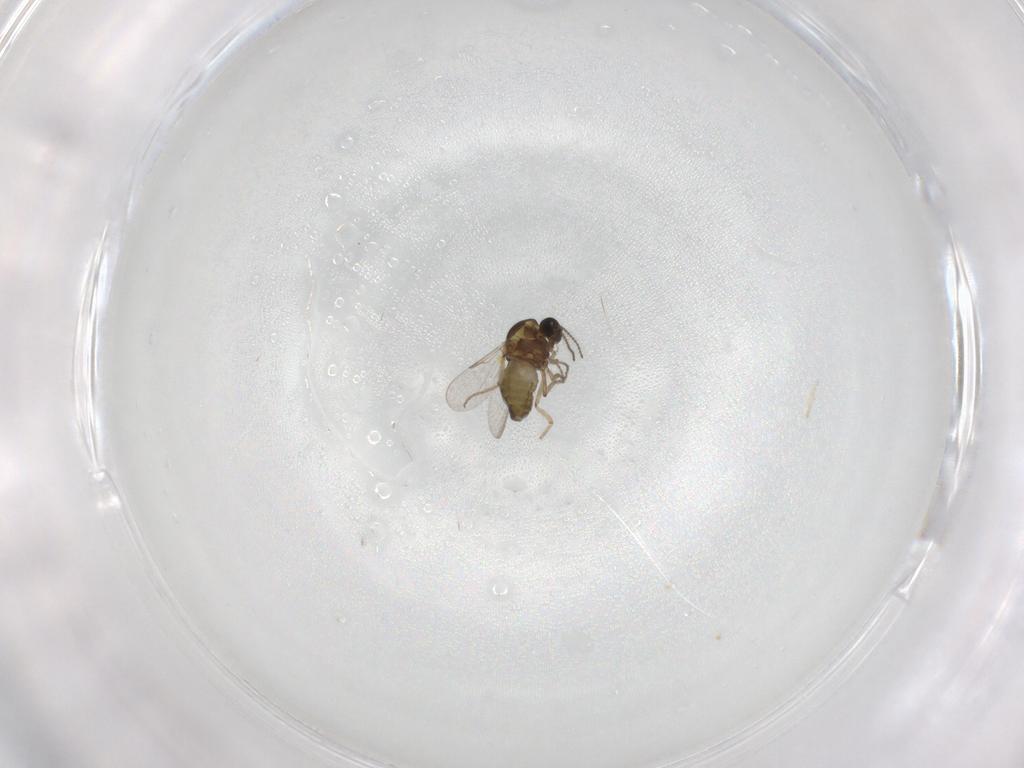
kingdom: Animalia
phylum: Arthropoda
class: Insecta
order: Diptera
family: Ceratopogonidae
